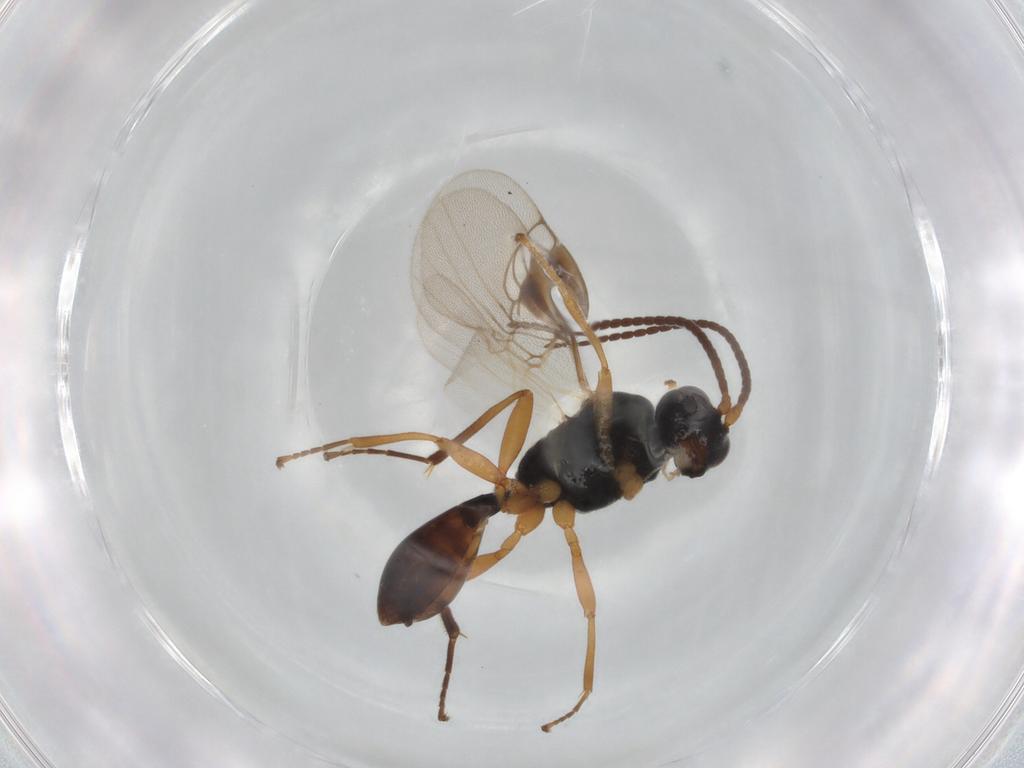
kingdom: Animalia
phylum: Arthropoda
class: Insecta
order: Hymenoptera
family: Braconidae
